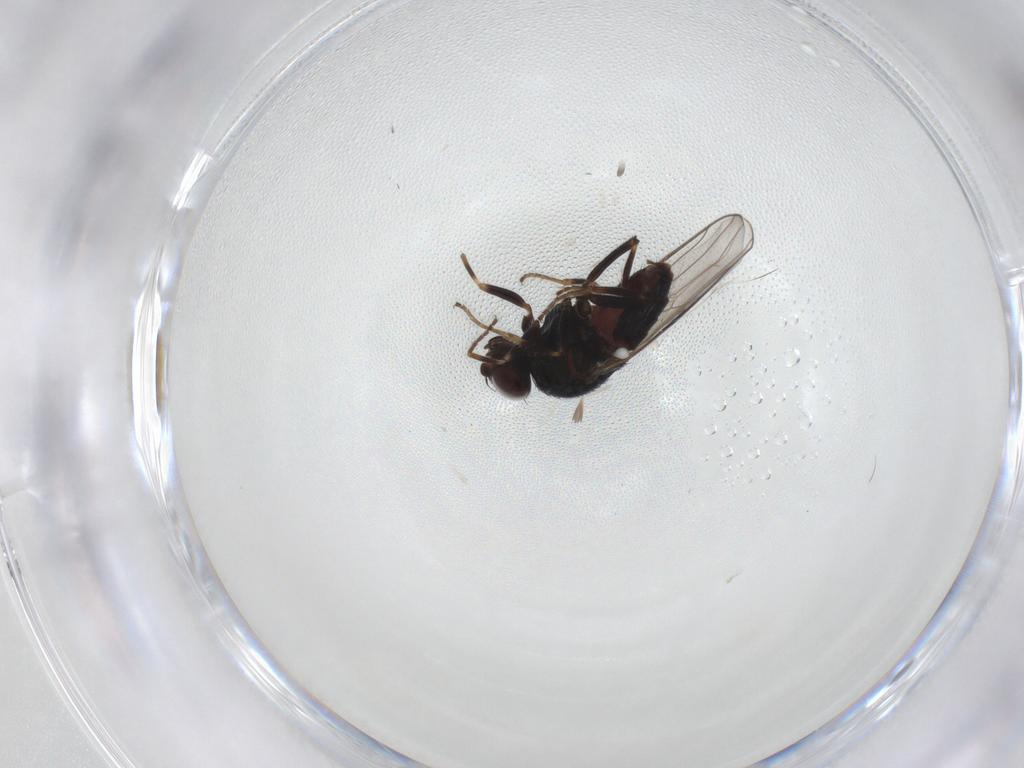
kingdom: Animalia
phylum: Arthropoda
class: Insecta
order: Diptera
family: Chloropidae
